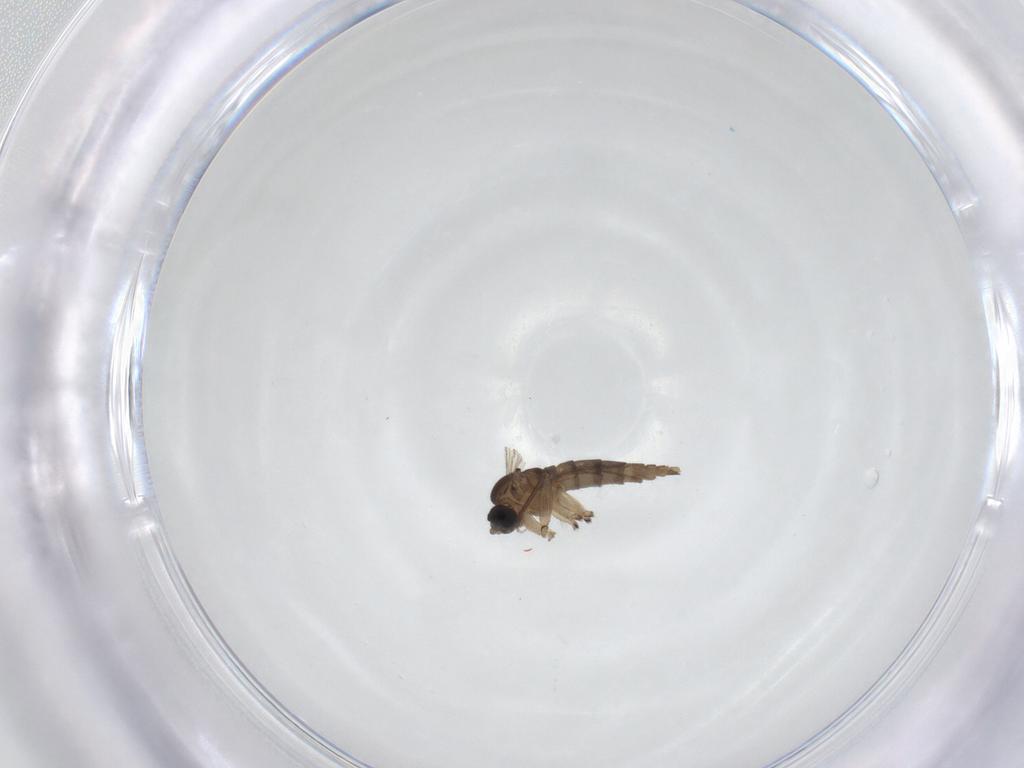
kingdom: Animalia
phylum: Arthropoda
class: Insecta
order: Diptera
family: Sciaridae
